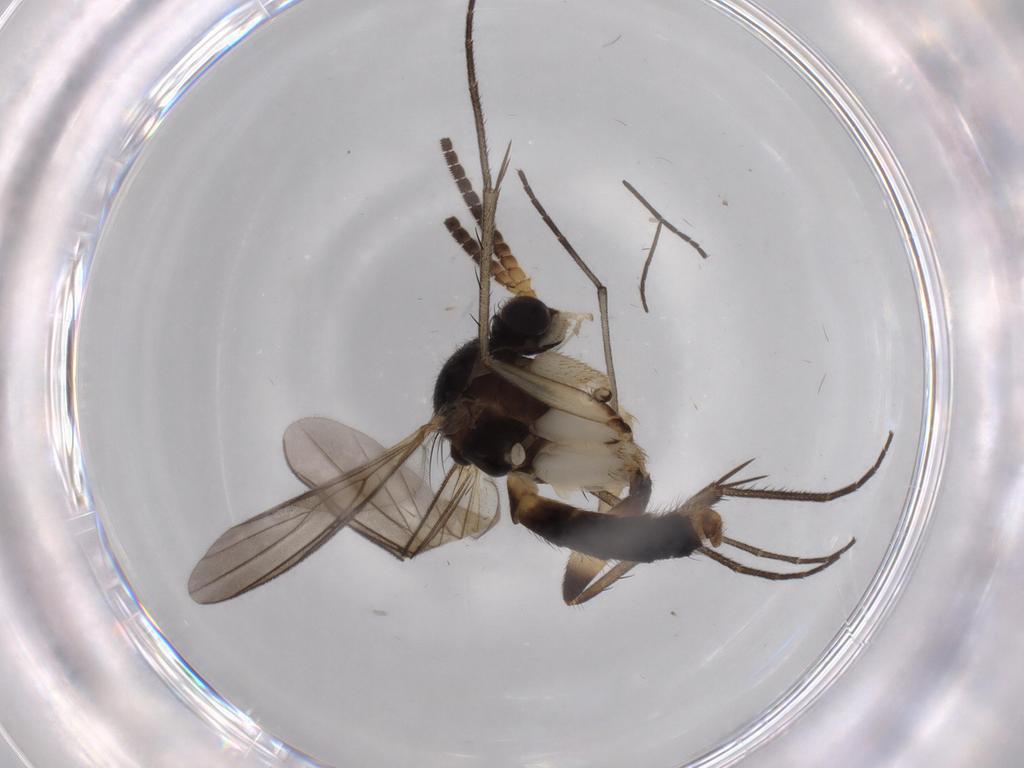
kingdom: Animalia
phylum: Arthropoda
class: Insecta
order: Diptera
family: Sciaridae
